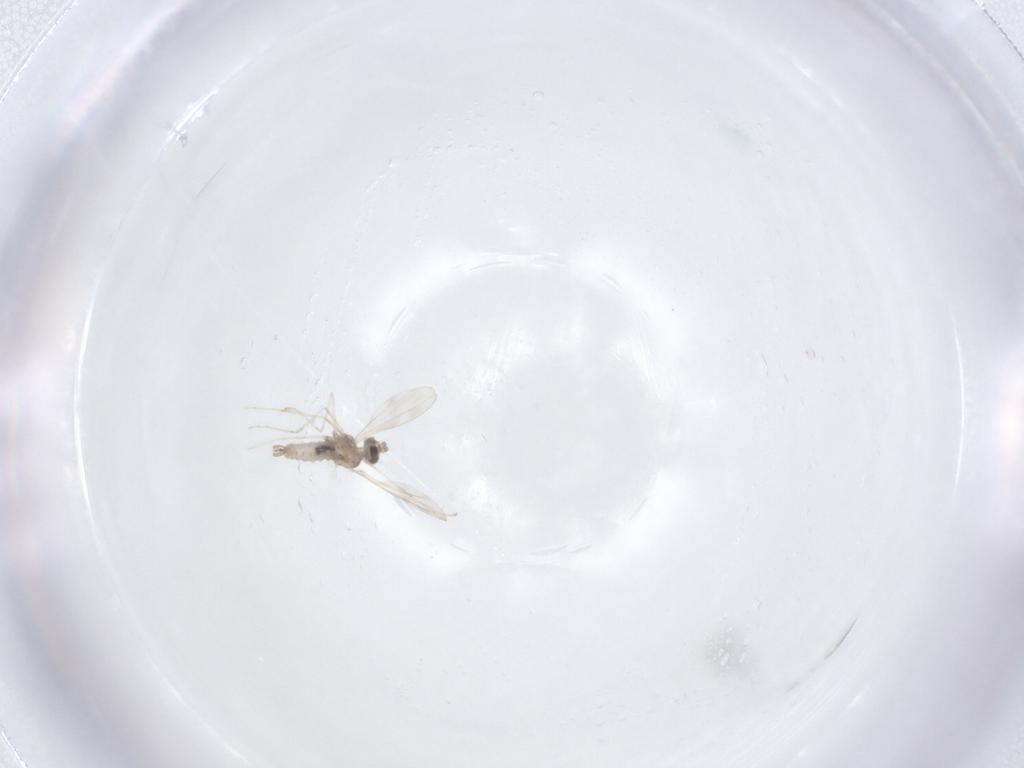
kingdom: Animalia
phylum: Arthropoda
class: Insecta
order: Diptera
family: Cecidomyiidae
